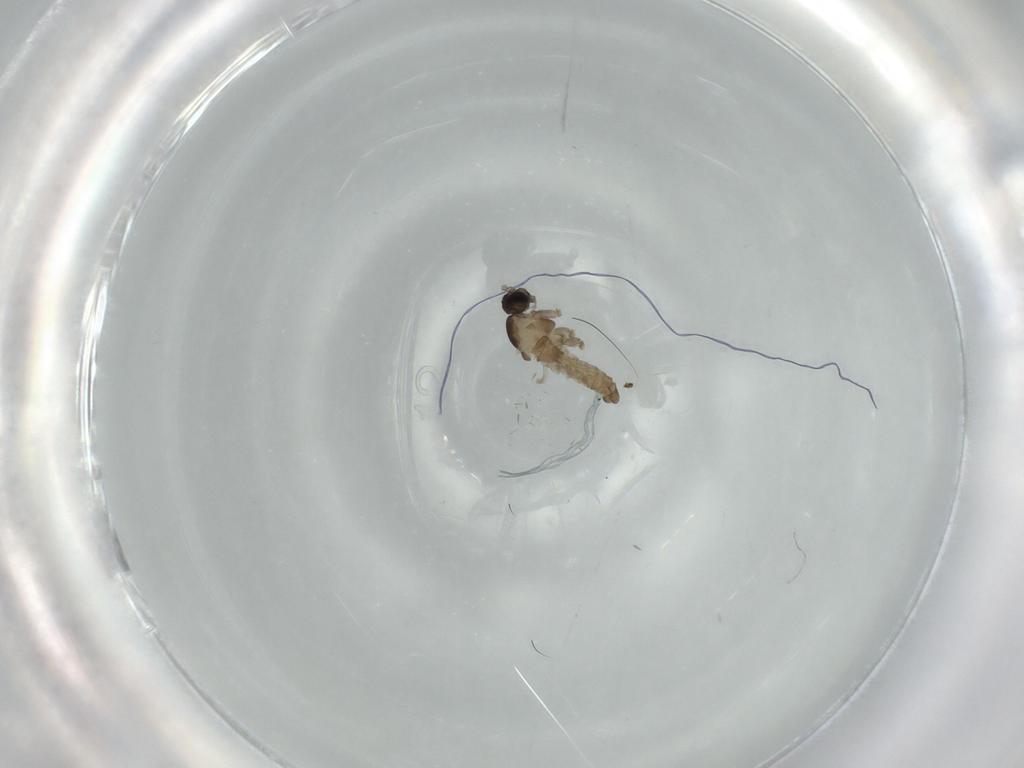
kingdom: Animalia
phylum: Arthropoda
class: Insecta
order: Diptera
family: Cecidomyiidae
